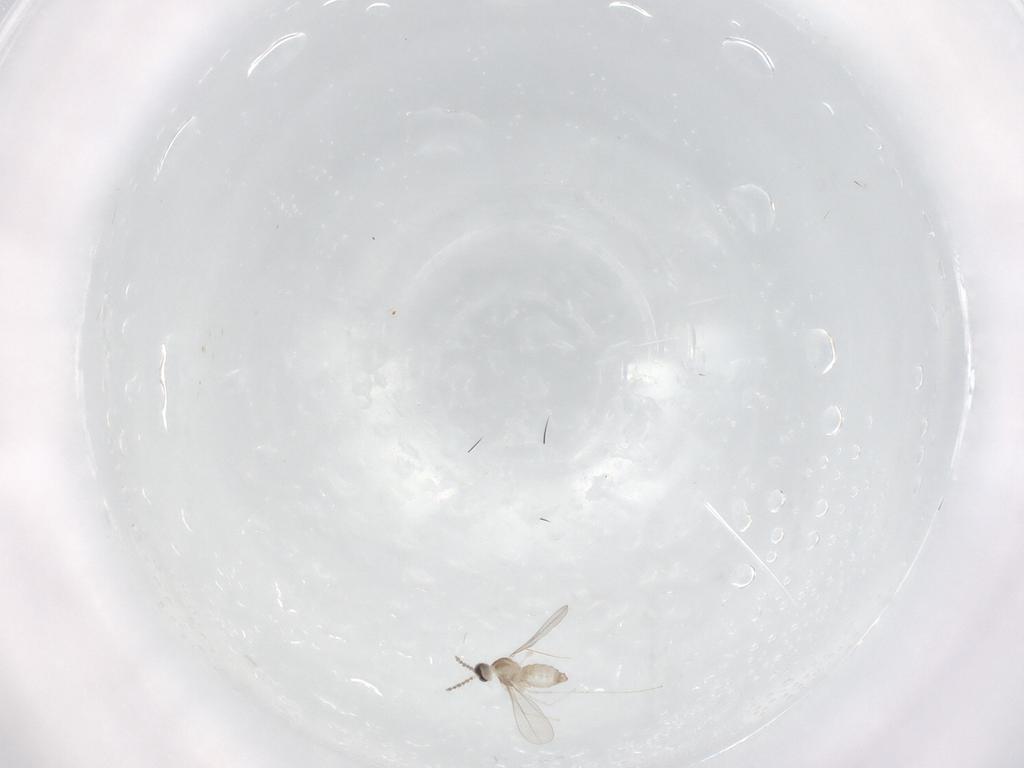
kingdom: Animalia
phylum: Arthropoda
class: Insecta
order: Diptera
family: Cecidomyiidae
